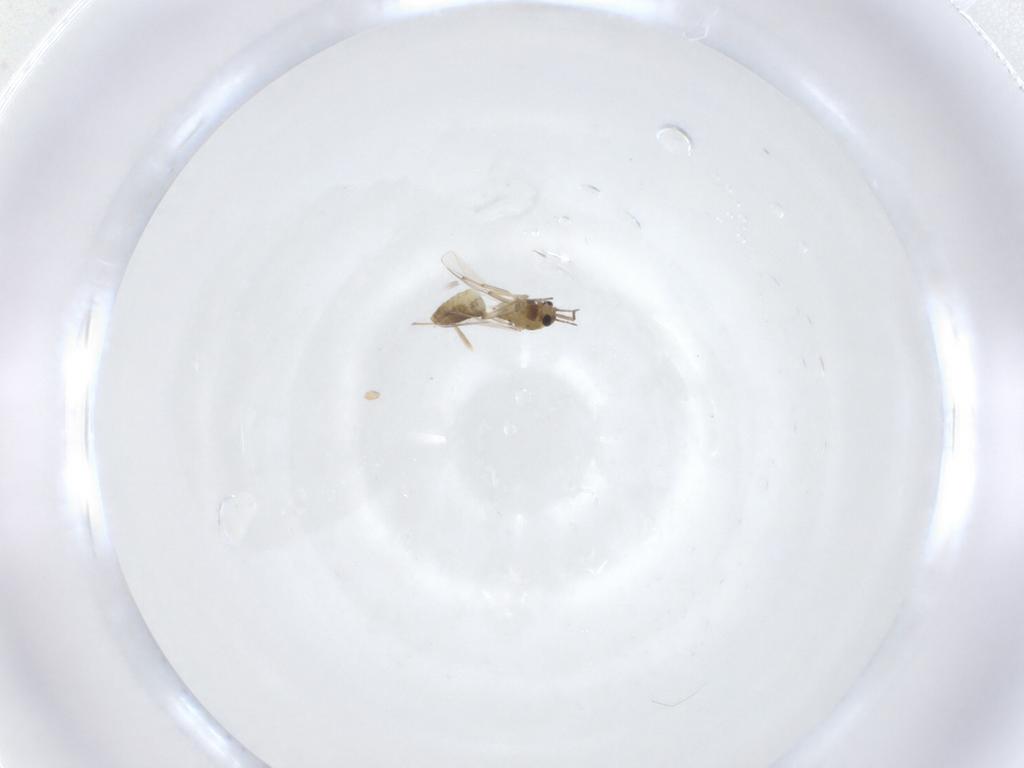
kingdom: Animalia
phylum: Arthropoda
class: Insecta
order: Diptera
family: Chironomidae
